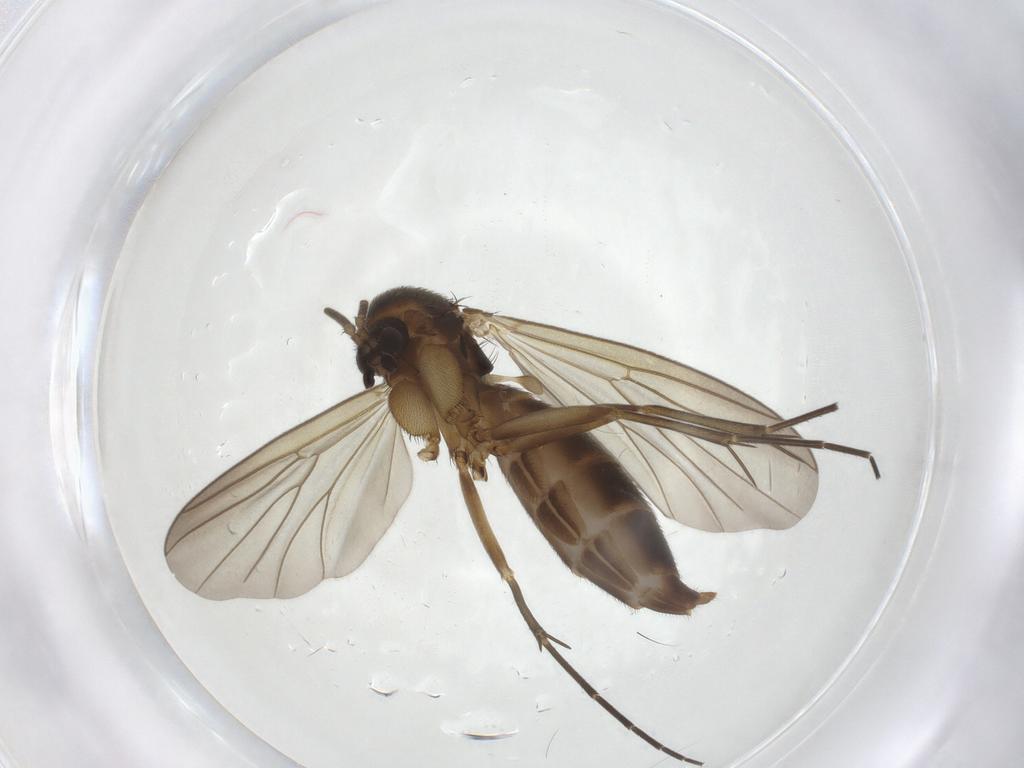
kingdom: Animalia
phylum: Arthropoda
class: Insecta
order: Diptera
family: Mycetophilidae
